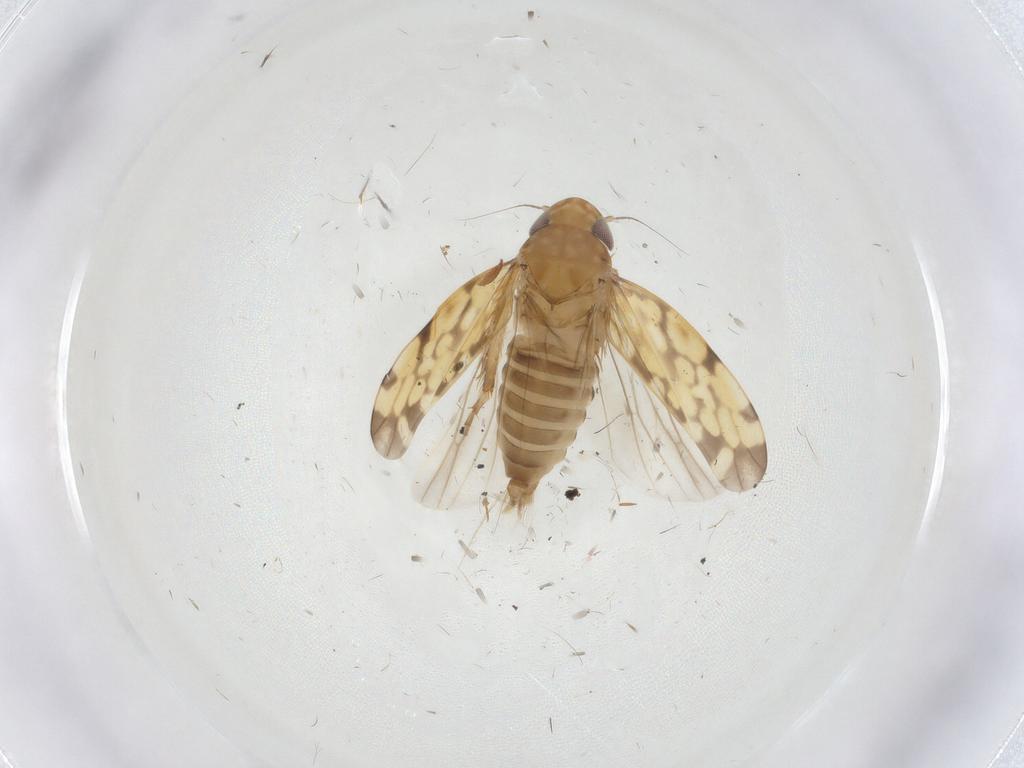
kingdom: Animalia
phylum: Arthropoda
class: Insecta
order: Hemiptera
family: Cicadellidae
